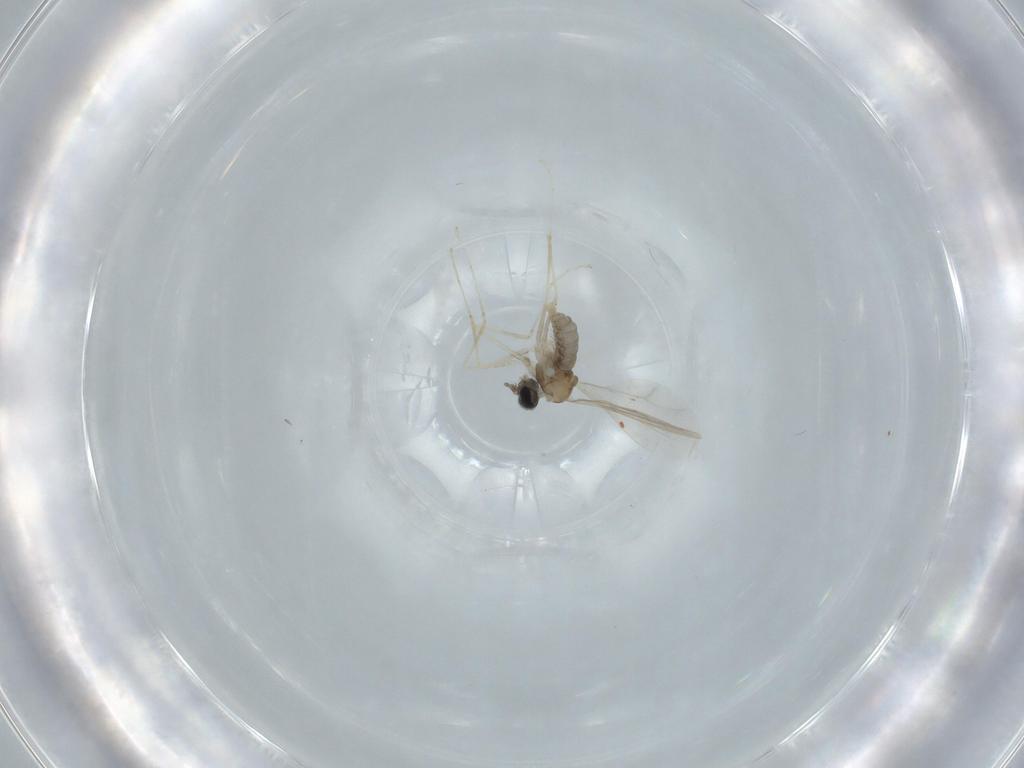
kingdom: Animalia
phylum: Arthropoda
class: Insecta
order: Diptera
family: Cecidomyiidae
